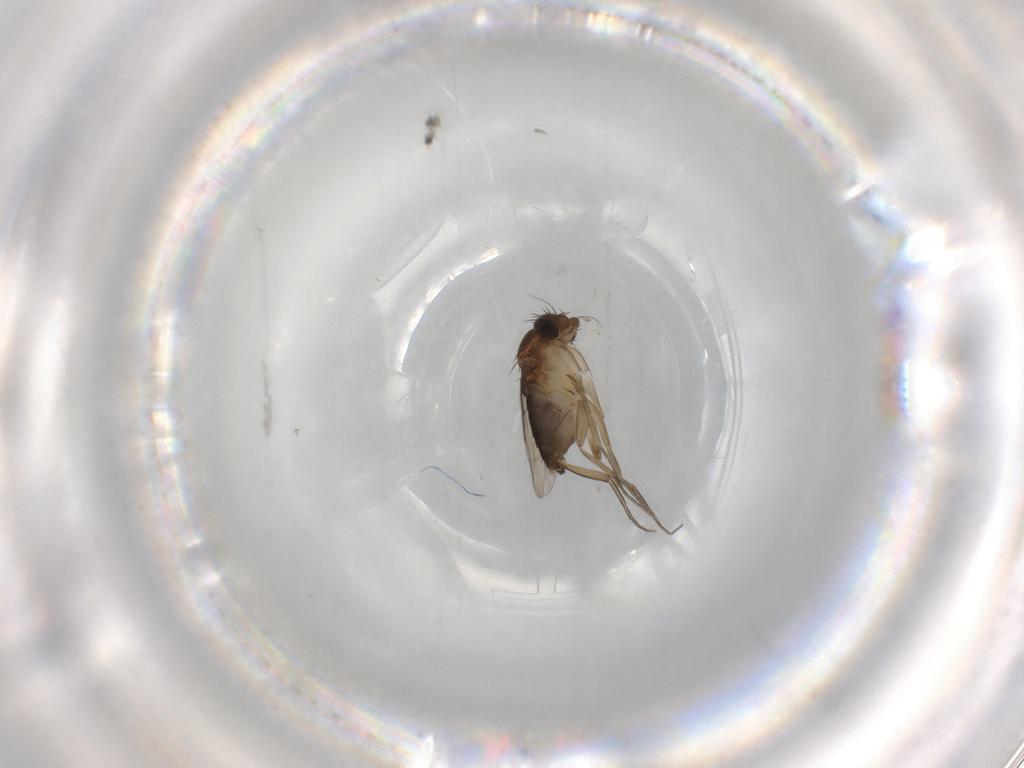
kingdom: Animalia
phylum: Arthropoda
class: Insecta
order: Diptera
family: Phoridae
